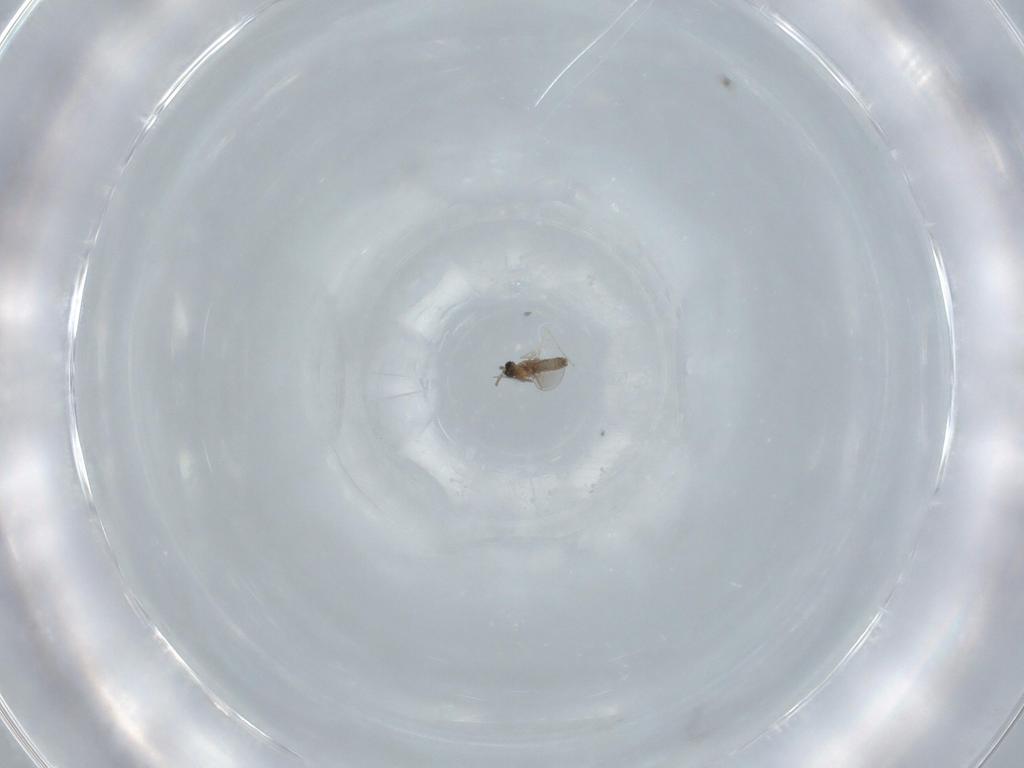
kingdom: Animalia
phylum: Arthropoda
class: Insecta
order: Diptera
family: Cecidomyiidae
